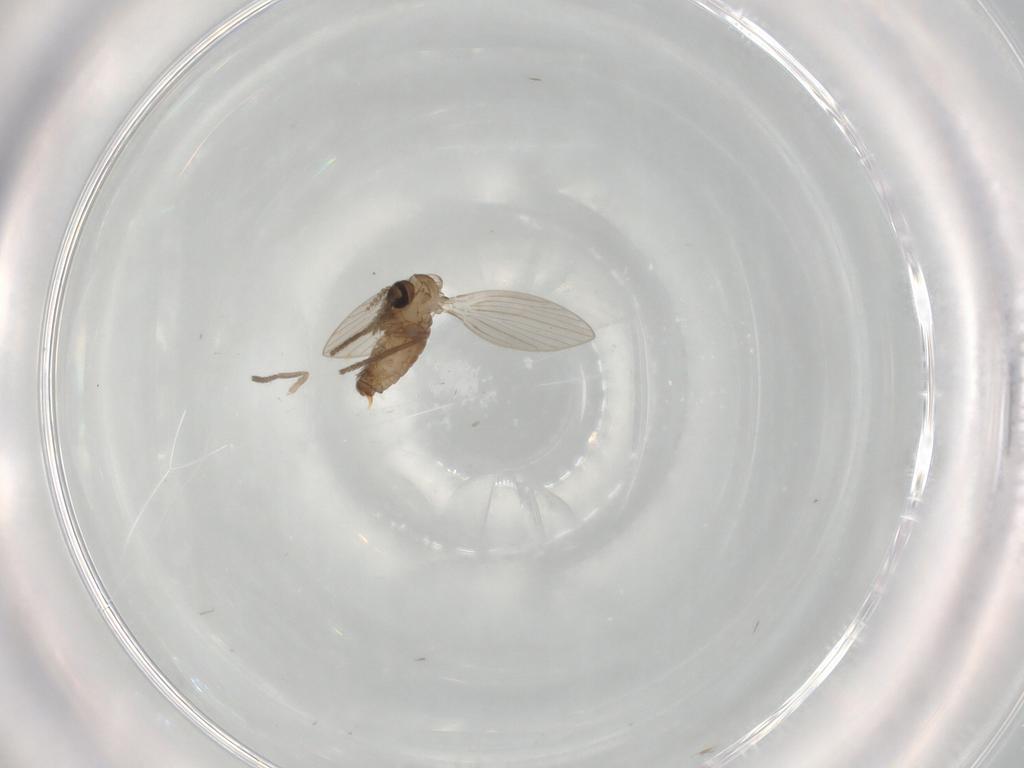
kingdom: Animalia
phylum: Arthropoda
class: Insecta
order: Diptera
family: Psychodidae
